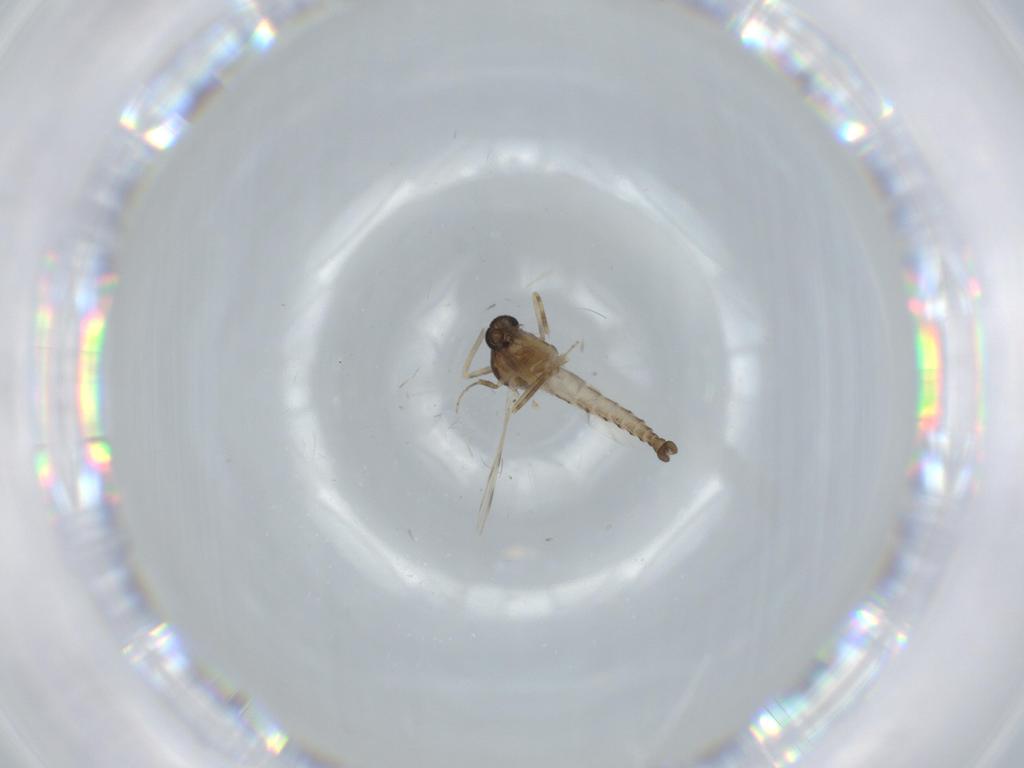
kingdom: Animalia
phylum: Arthropoda
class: Insecta
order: Diptera
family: Ceratopogonidae
